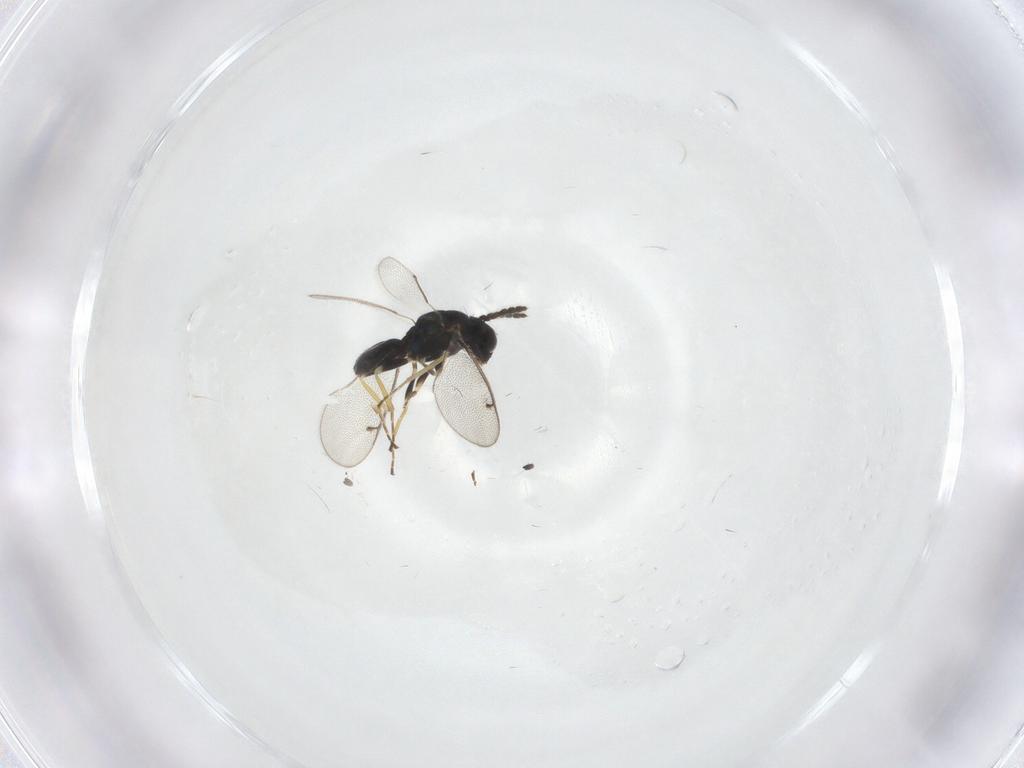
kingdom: Animalia
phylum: Arthropoda
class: Insecta
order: Hymenoptera
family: Eulophidae
